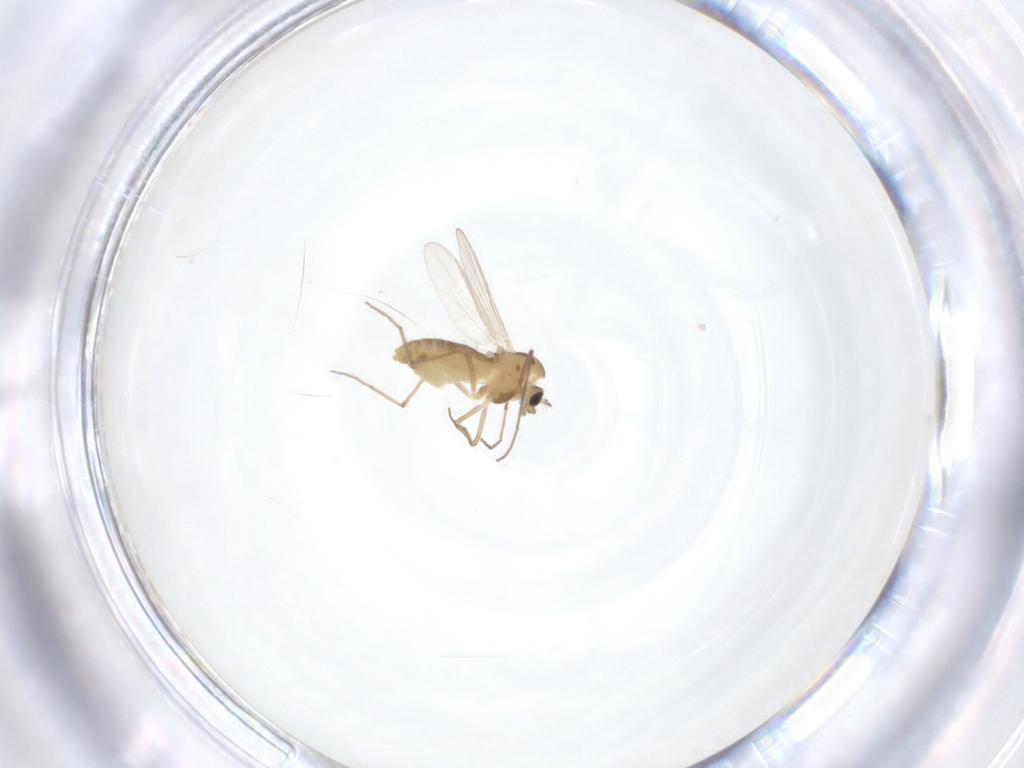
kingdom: Animalia
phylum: Arthropoda
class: Insecta
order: Diptera
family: Chironomidae
